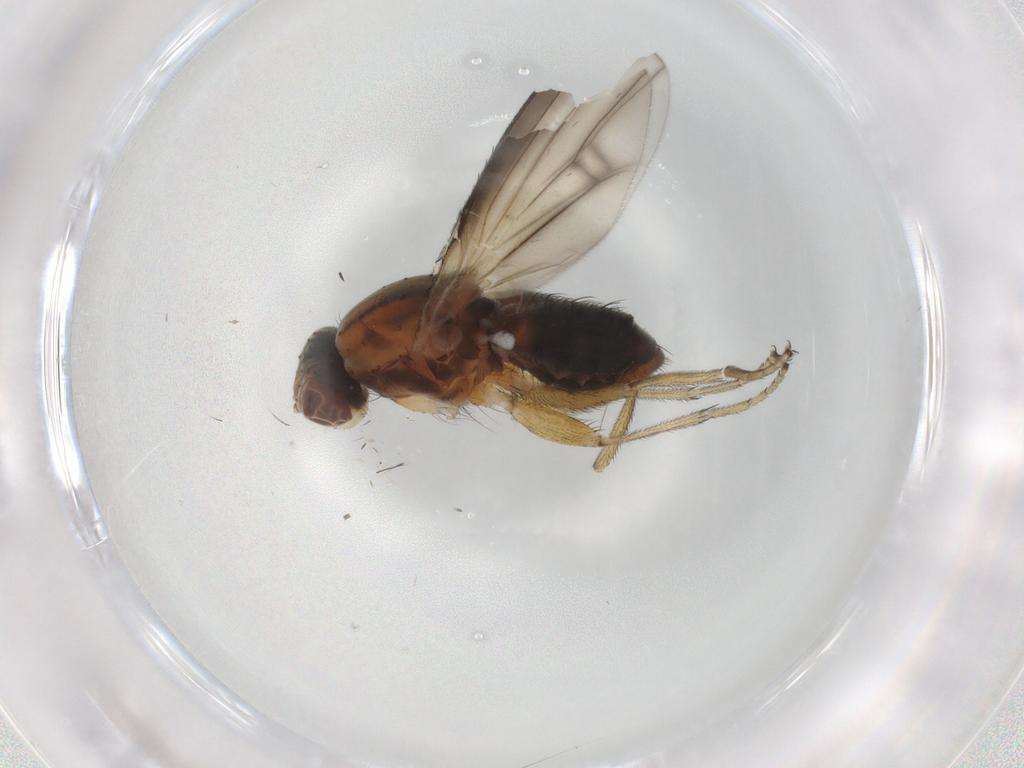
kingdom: Animalia
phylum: Arthropoda
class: Insecta
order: Diptera
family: Heleomyzidae
